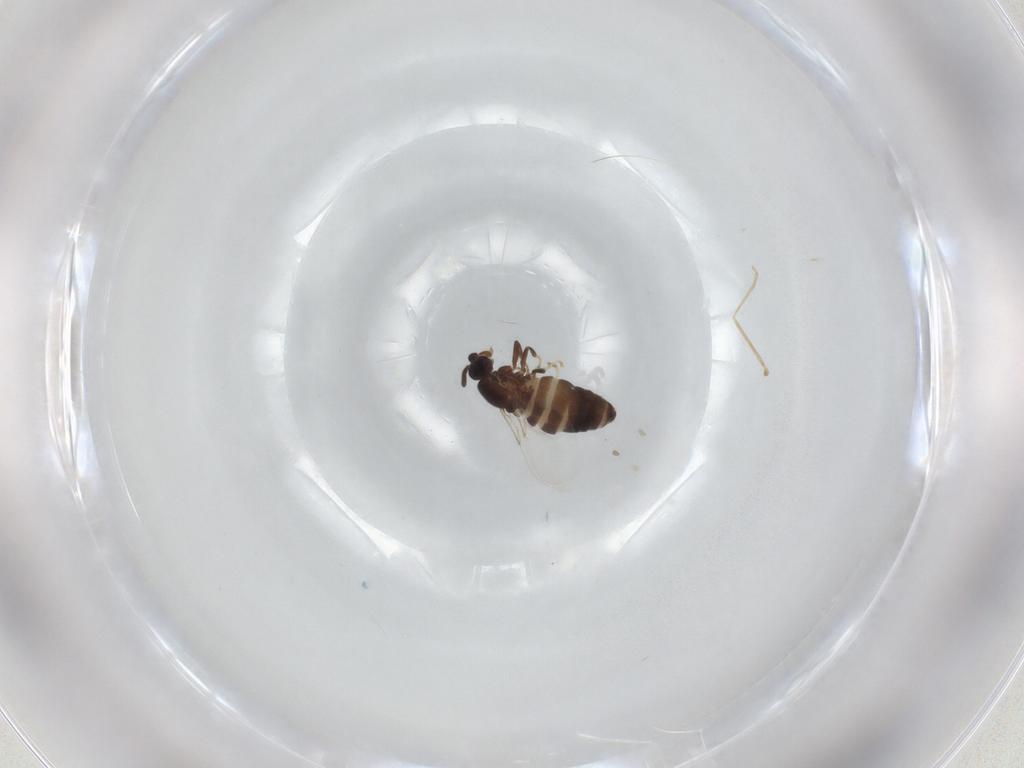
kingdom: Animalia
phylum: Arthropoda
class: Insecta
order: Diptera
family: Scatopsidae
